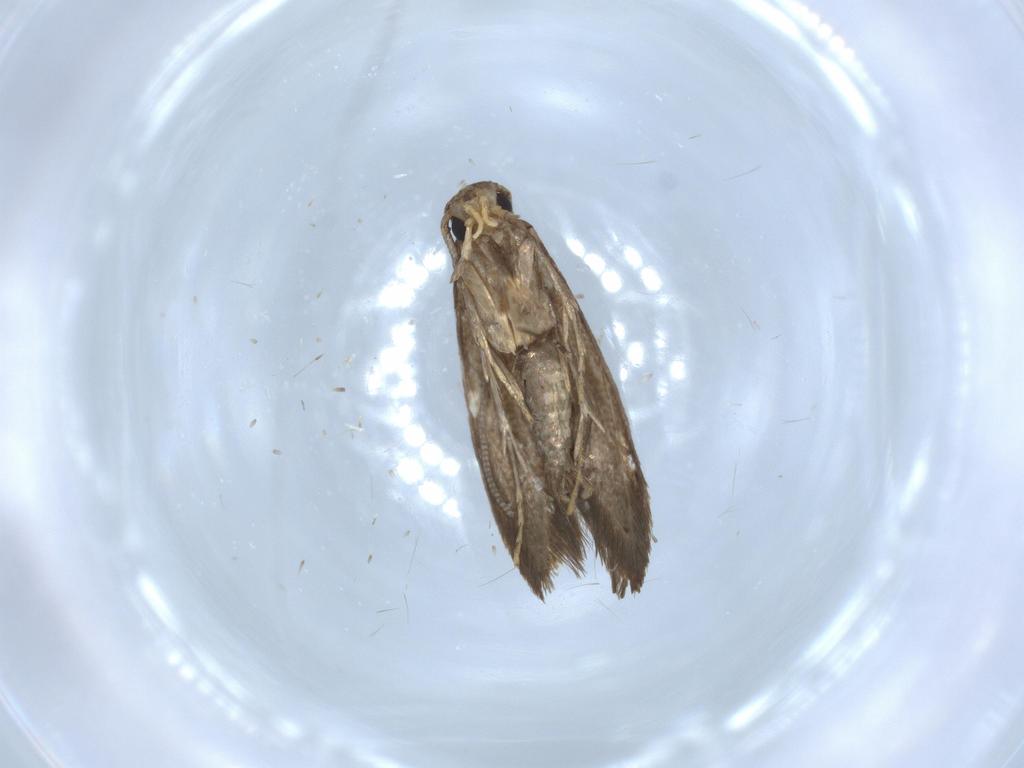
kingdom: Animalia
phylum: Arthropoda
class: Insecta
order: Lepidoptera
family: Tineidae
